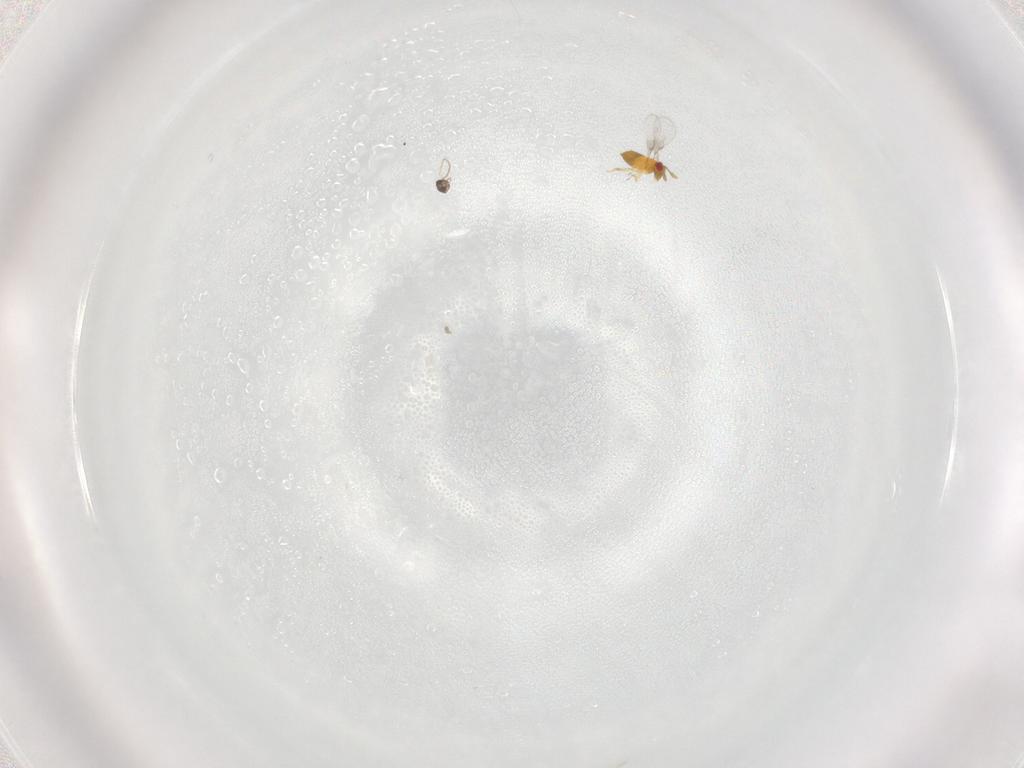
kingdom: Animalia
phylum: Arthropoda
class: Insecta
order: Hymenoptera
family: Trichogrammatidae
